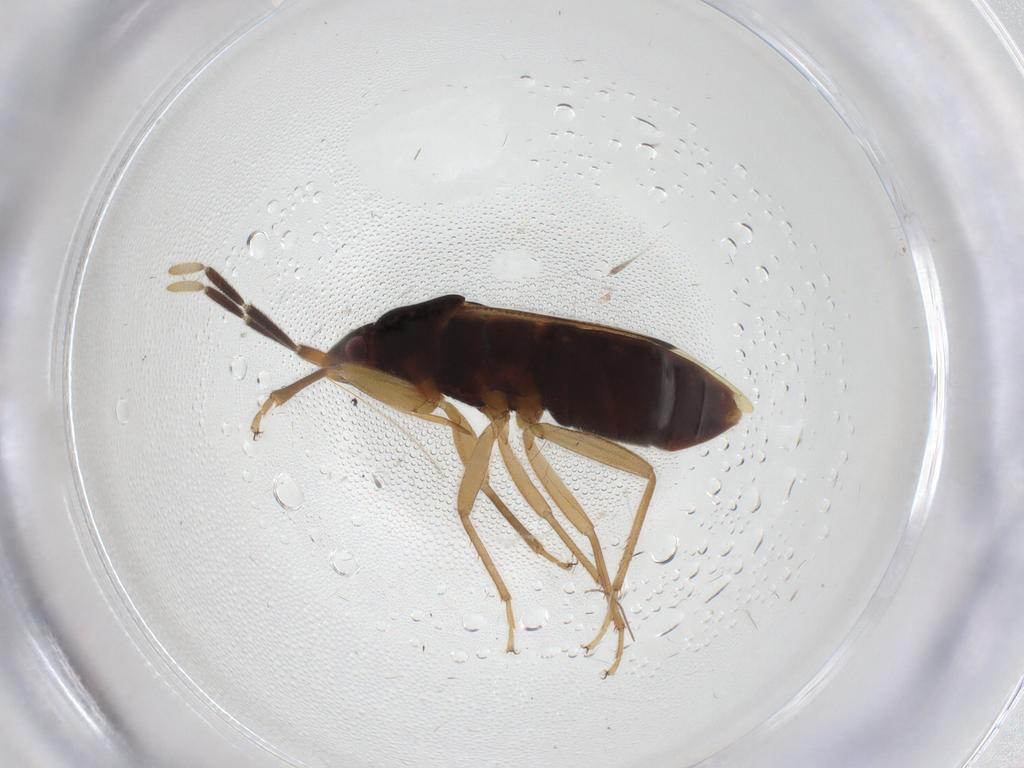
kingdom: Animalia
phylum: Arthropoda
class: Insecta
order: Hemiptera
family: Rhyparochromidae
